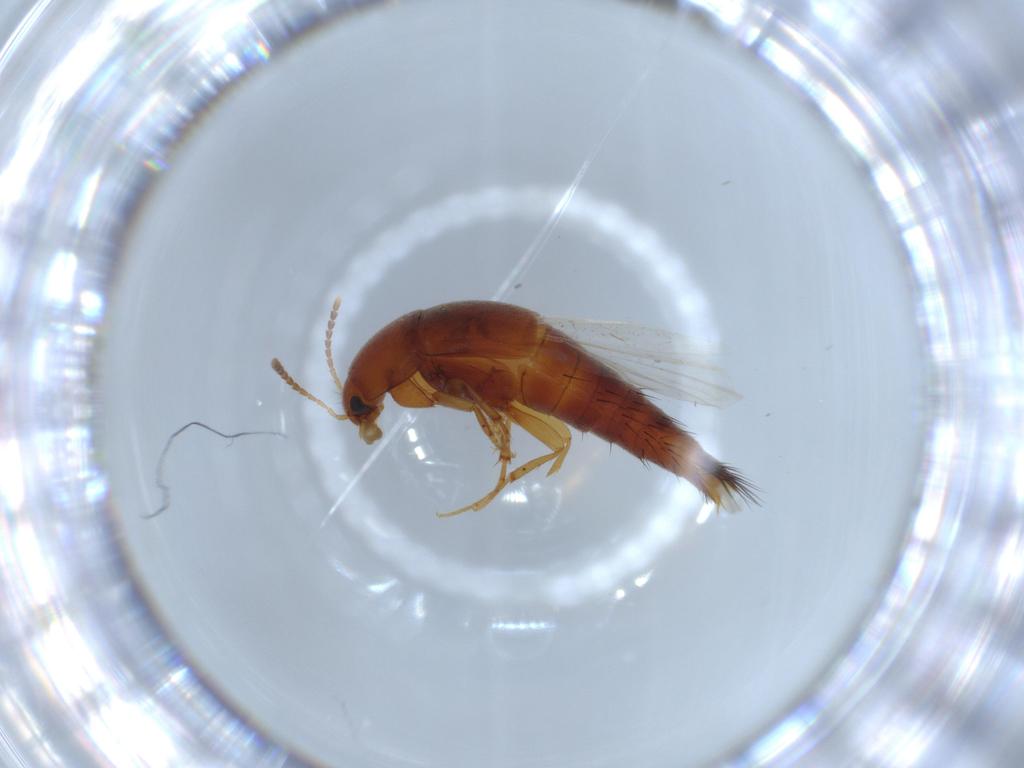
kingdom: Animalia
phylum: Arthropoda
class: Insecta
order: Coleoptera
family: Staphylinidae
